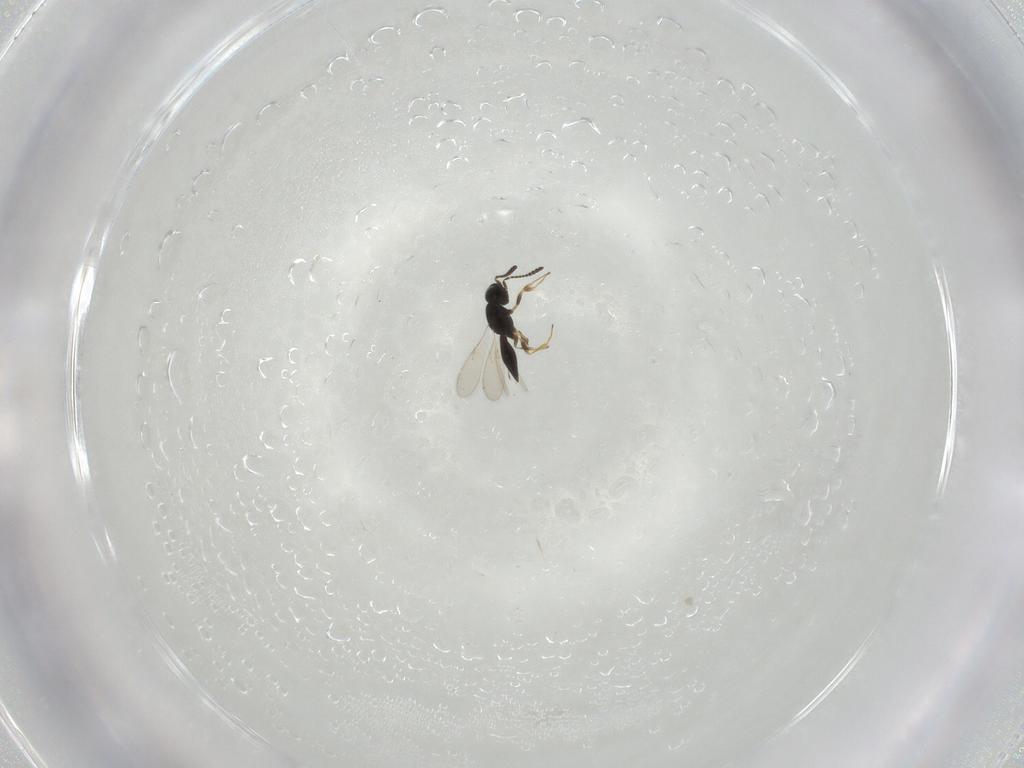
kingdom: Animalia
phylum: Arthropoda
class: Insecta
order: Hymenoptera
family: Scelionidae
